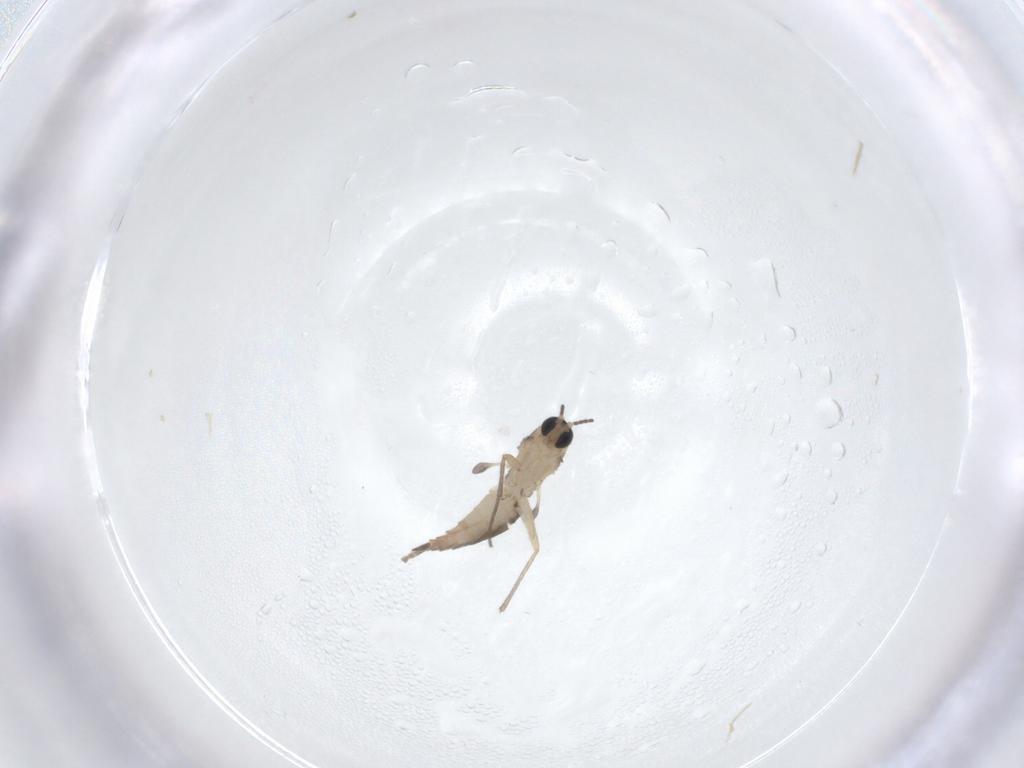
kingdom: Animalia
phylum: Arthropoda
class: Insecta
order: Diptera
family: Sciaridae
